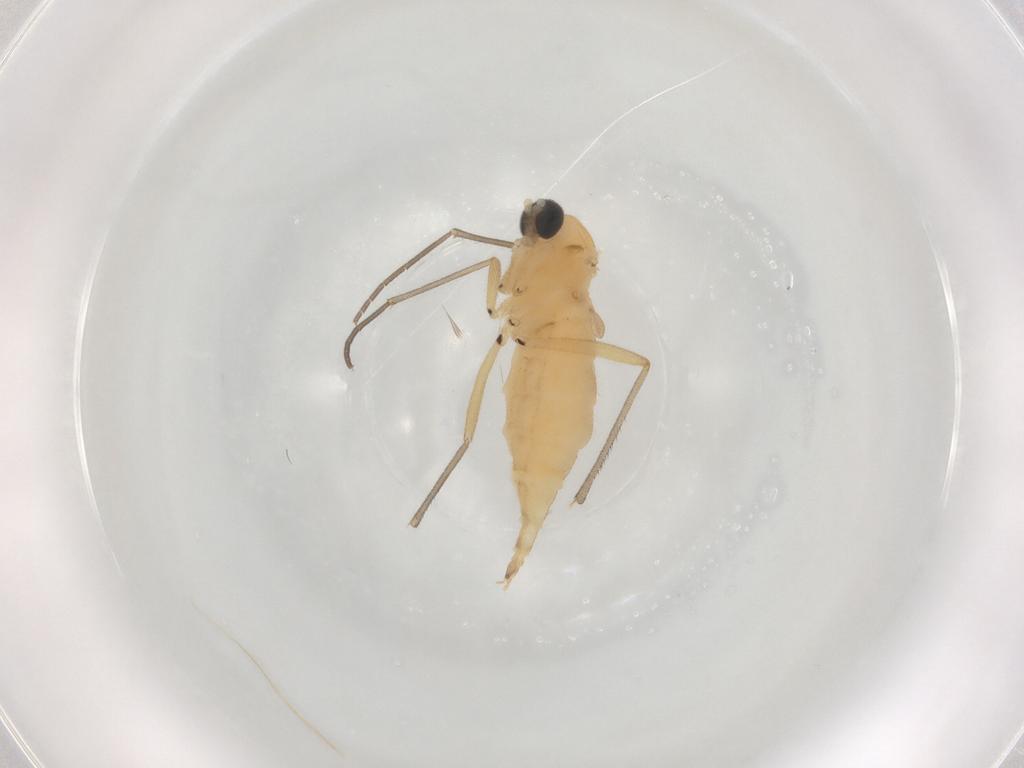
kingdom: Animalia
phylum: Arthropoda
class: Insecta
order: Diptera
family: Sciaridae
